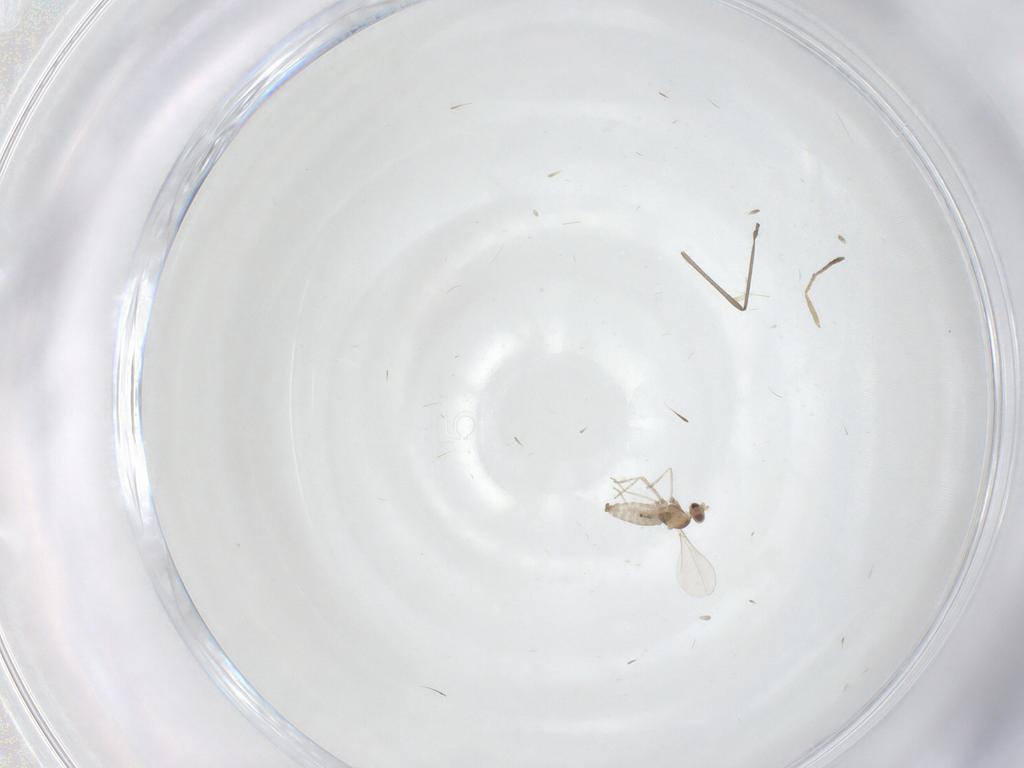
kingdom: Animalia
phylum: Arthropoda
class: Insecta
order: Diptera
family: Cecidomyiidae
